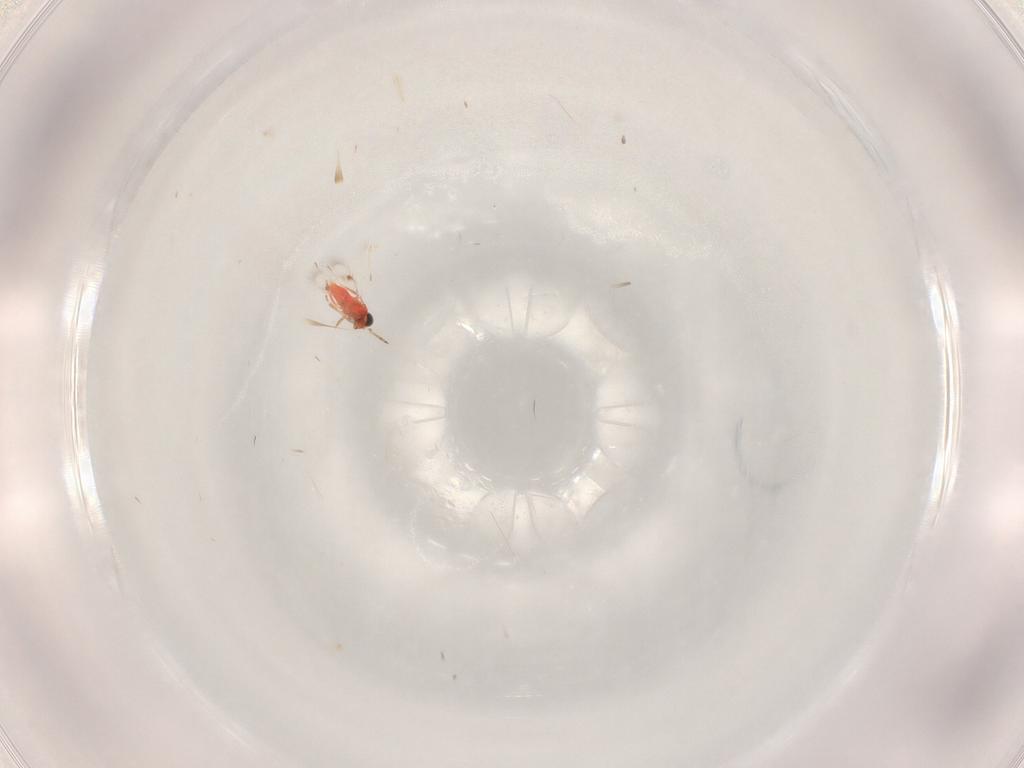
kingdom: Animalia
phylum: Arthropoda
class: Insecta
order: Hymenoptera
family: Trichogrammatidae
